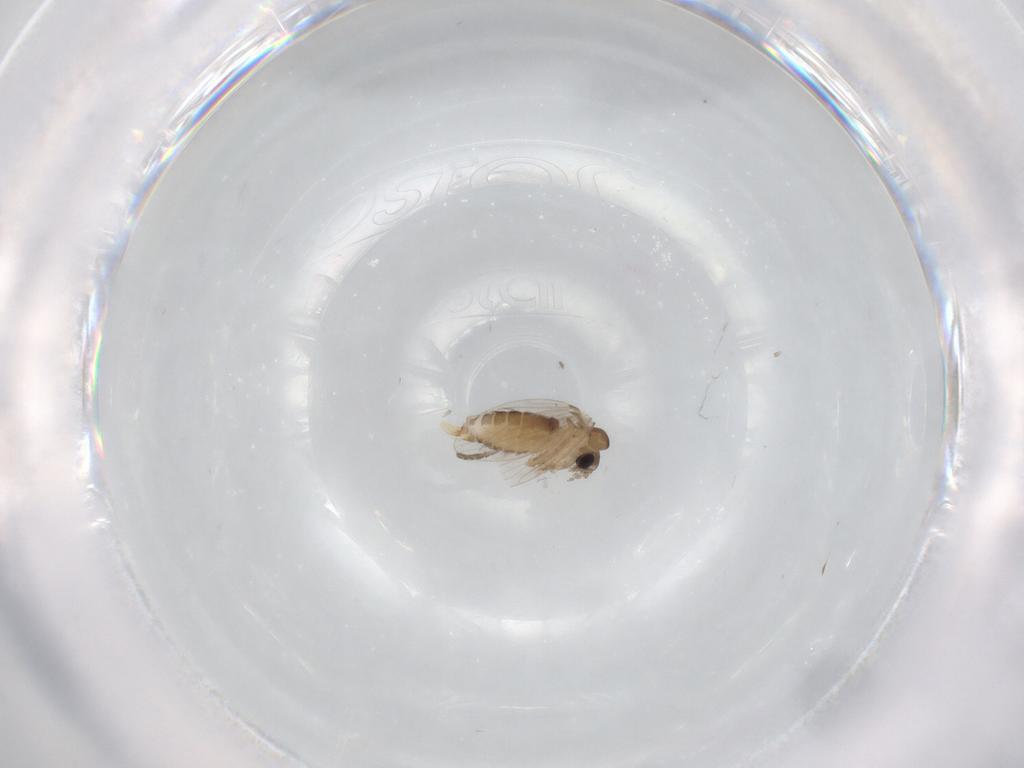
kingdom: Animalia
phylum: Arthropoda
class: Insecta
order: Diptera
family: Psychodidae
